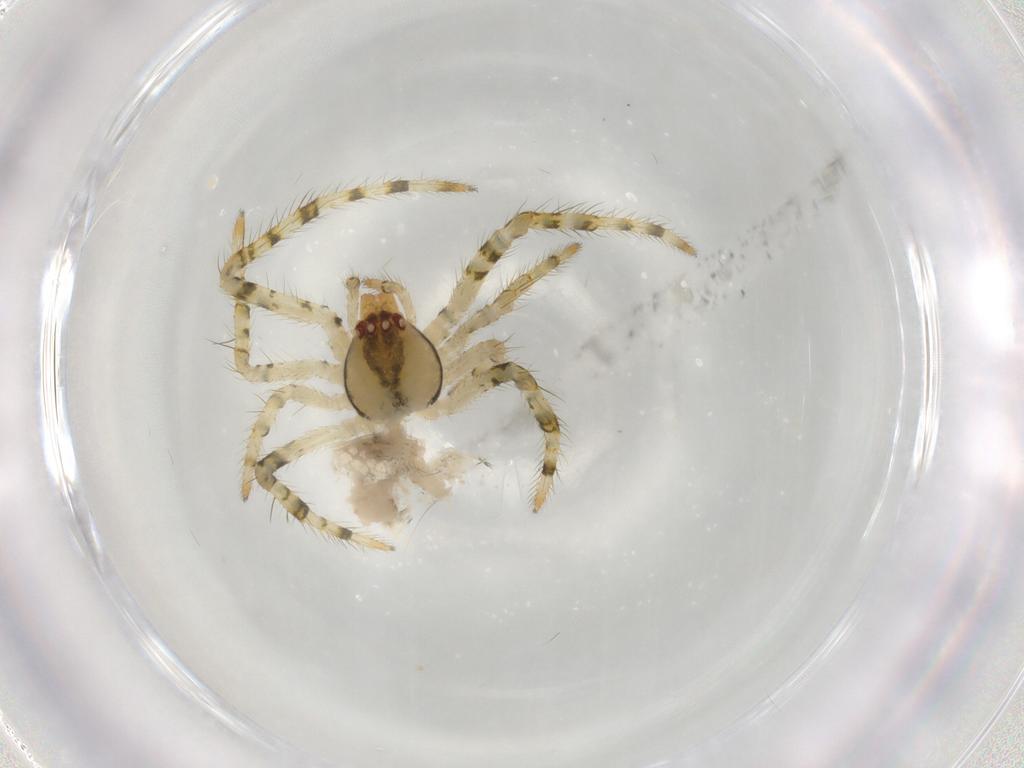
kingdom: Animalia
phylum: Arthropoda
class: Arachnida
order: Araneae
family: Theridiidae
